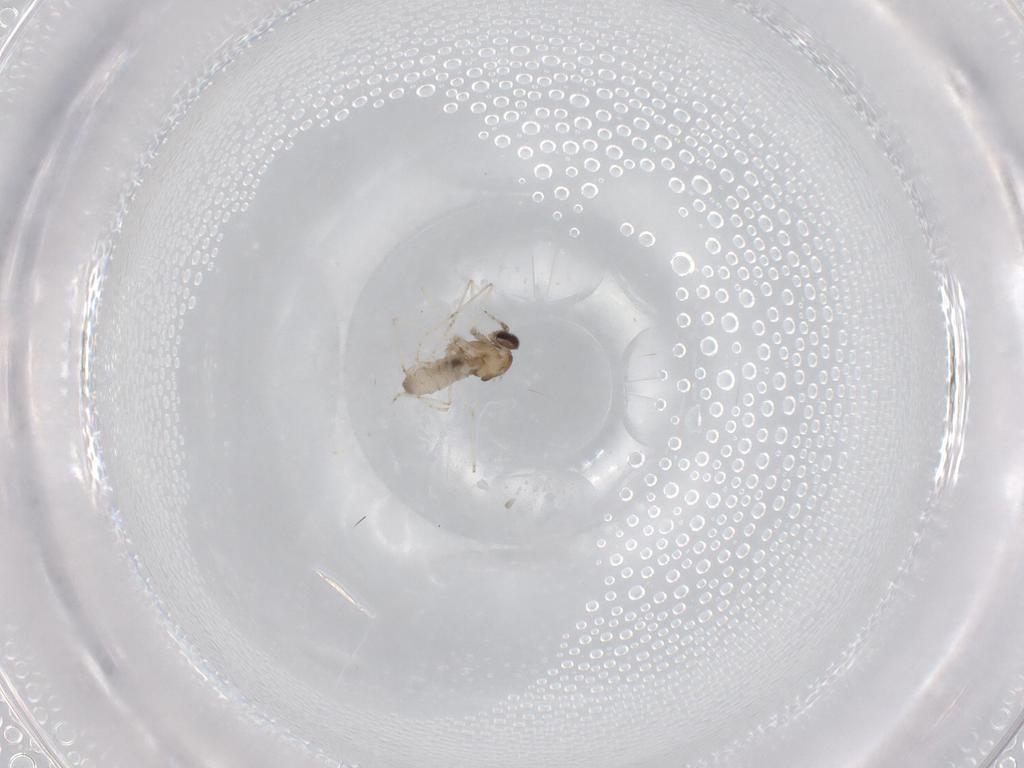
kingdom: Animalia
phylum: Arthropoda
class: Insecta
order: Diptera
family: Cecidomyiidae
